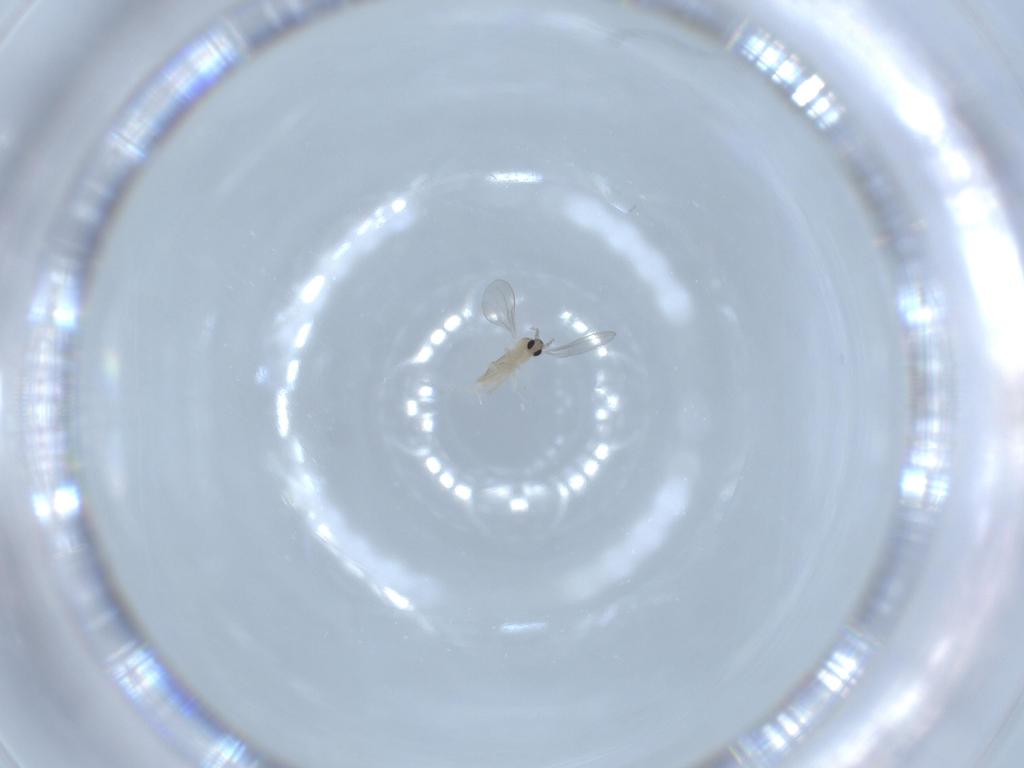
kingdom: Animalia
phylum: Arthropoda
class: Insecta
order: Diptera
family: Cecidomyiidae
